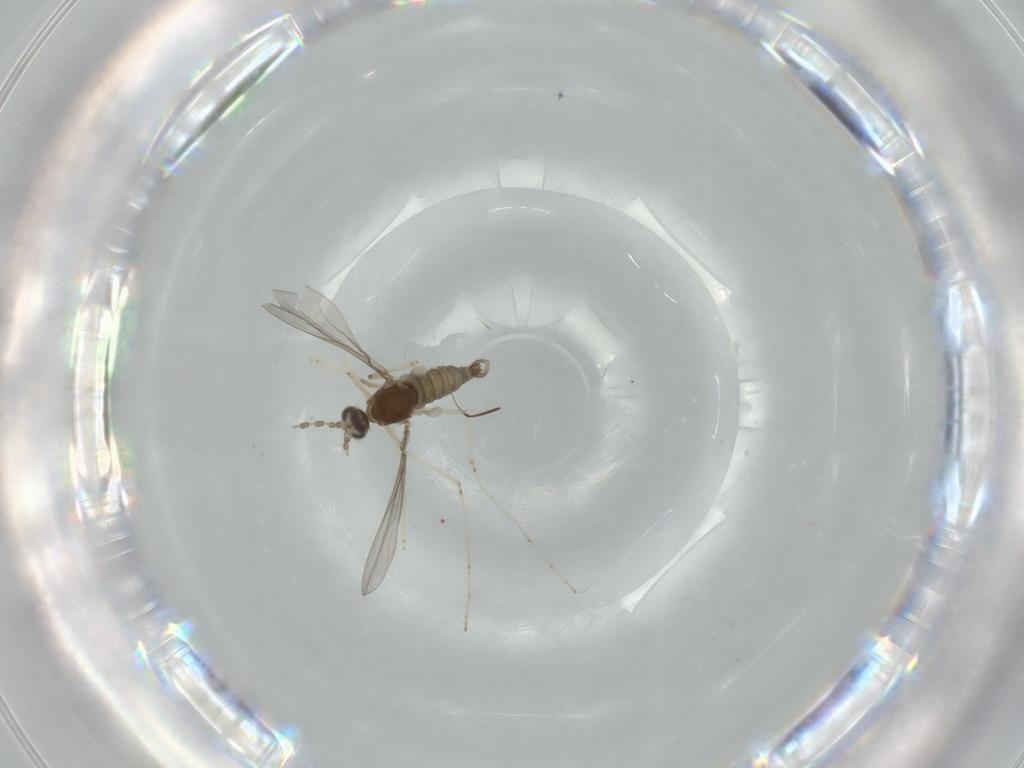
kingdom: Animalia
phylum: Arthropoda
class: Insecta
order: Diptera
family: Cecidomyiidae
